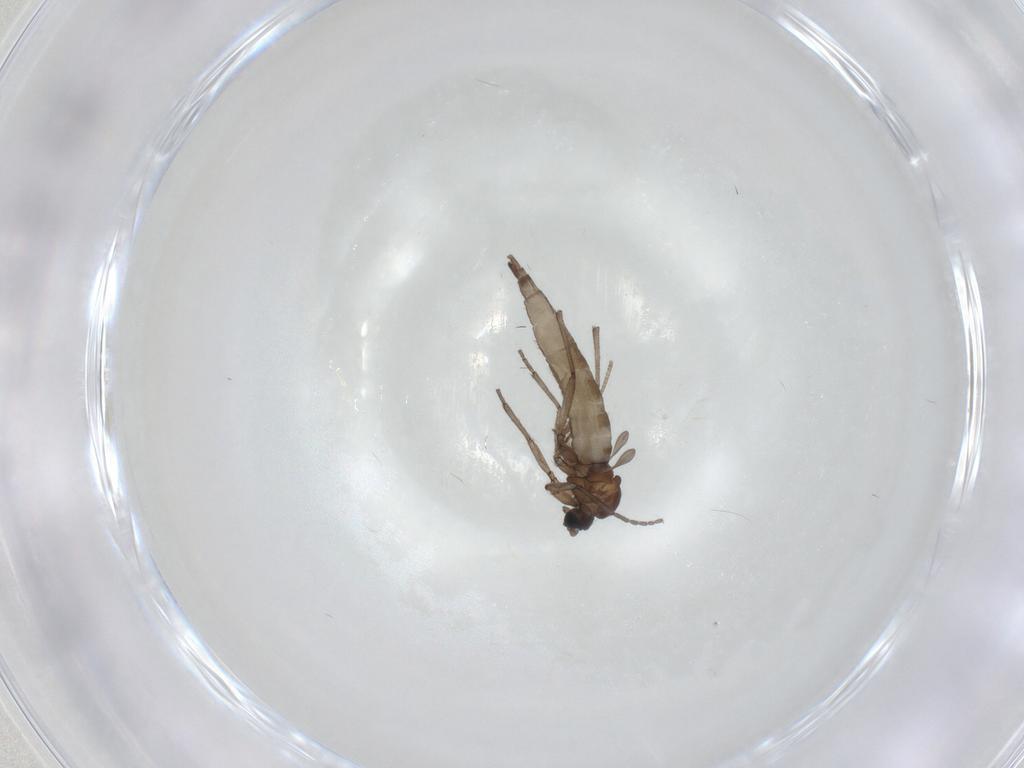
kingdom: Animalia
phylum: Arthropoda
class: Insecta
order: Diptera
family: Sciaridae
